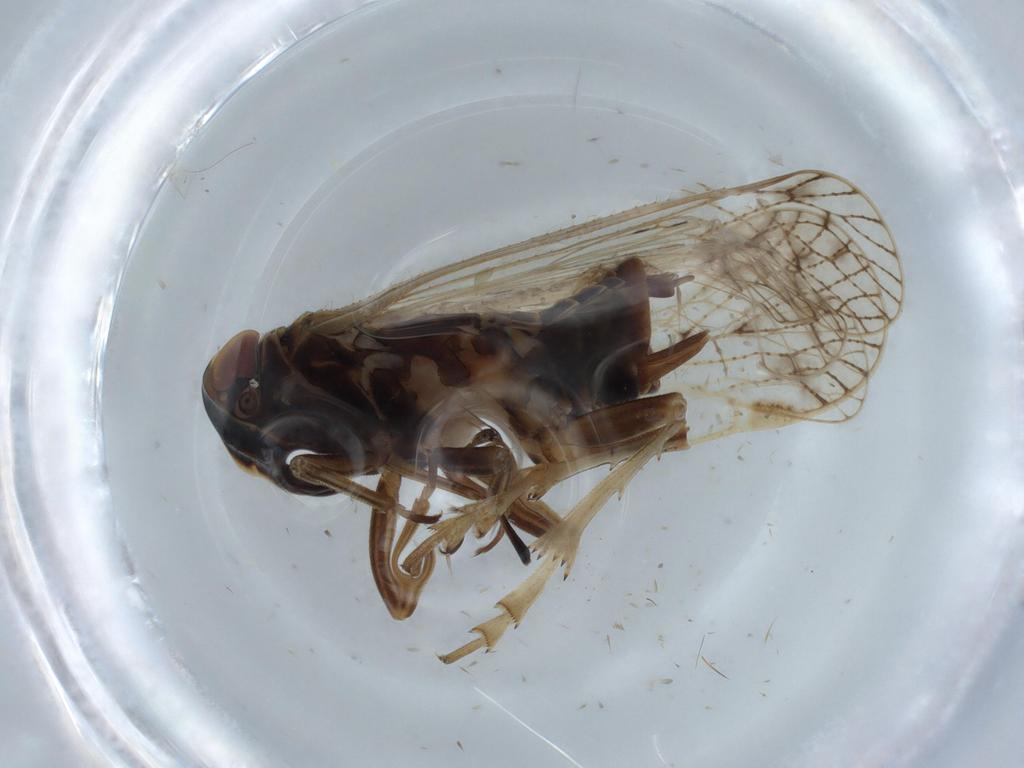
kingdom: Animalia
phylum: Arthropoda
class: Insecta
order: Hemiptera
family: Cixiidae
